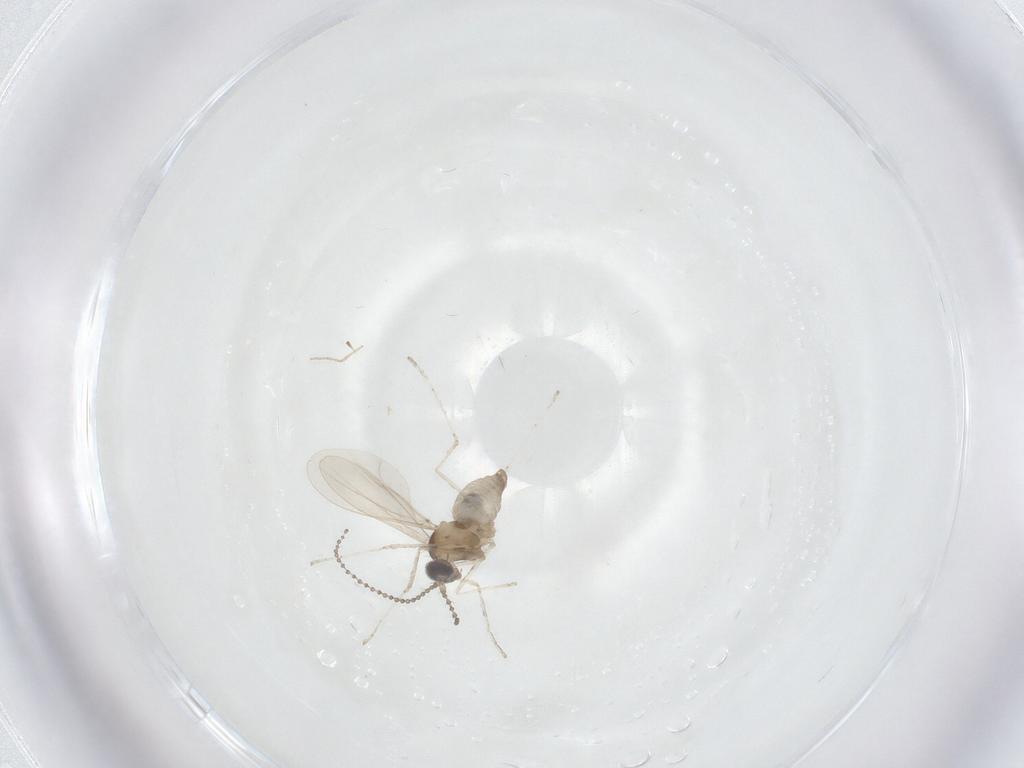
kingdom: Animalia
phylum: Arthropoda
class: Insecta
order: Diptera
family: Cecidomyiidae
